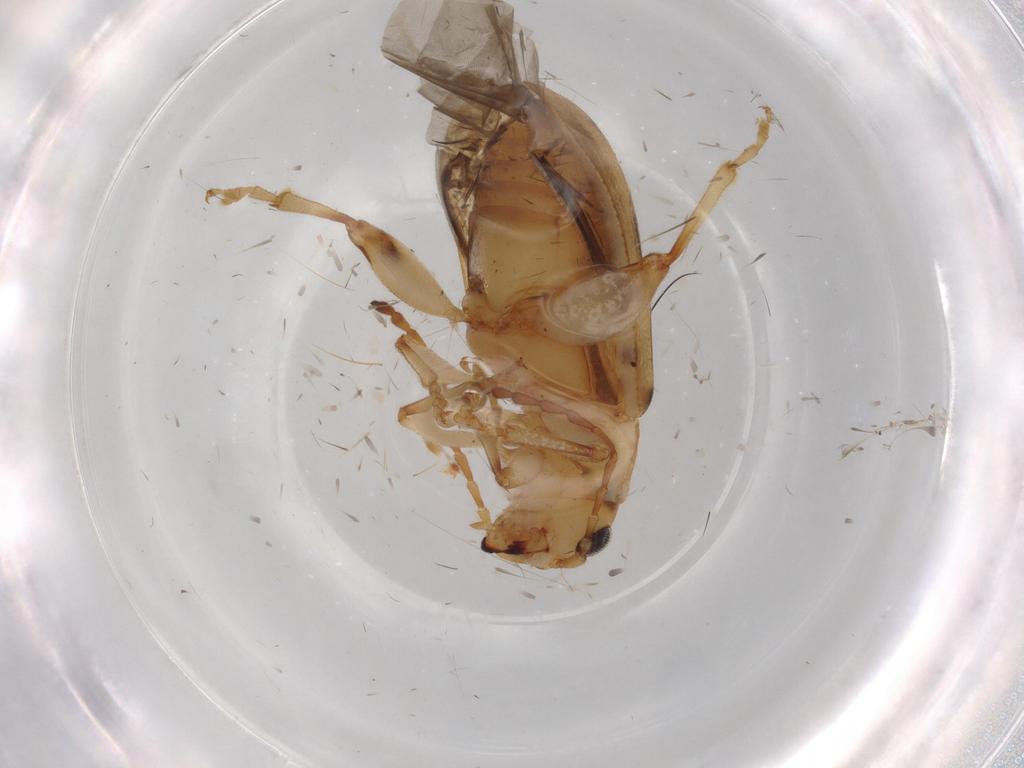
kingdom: Animalia
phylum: Arthropoda
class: Insecta
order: Coleoptera
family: Chrysomelidae
